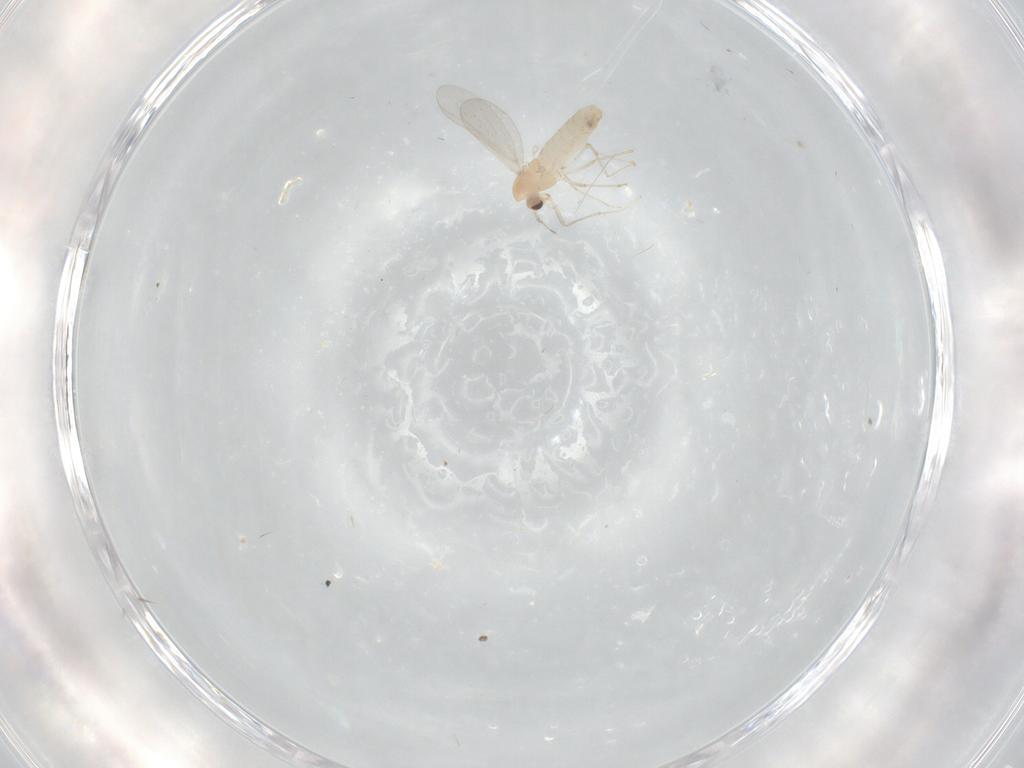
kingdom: Animalia
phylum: Arthropoda
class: Insecta
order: Diptera
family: Chironomidae
